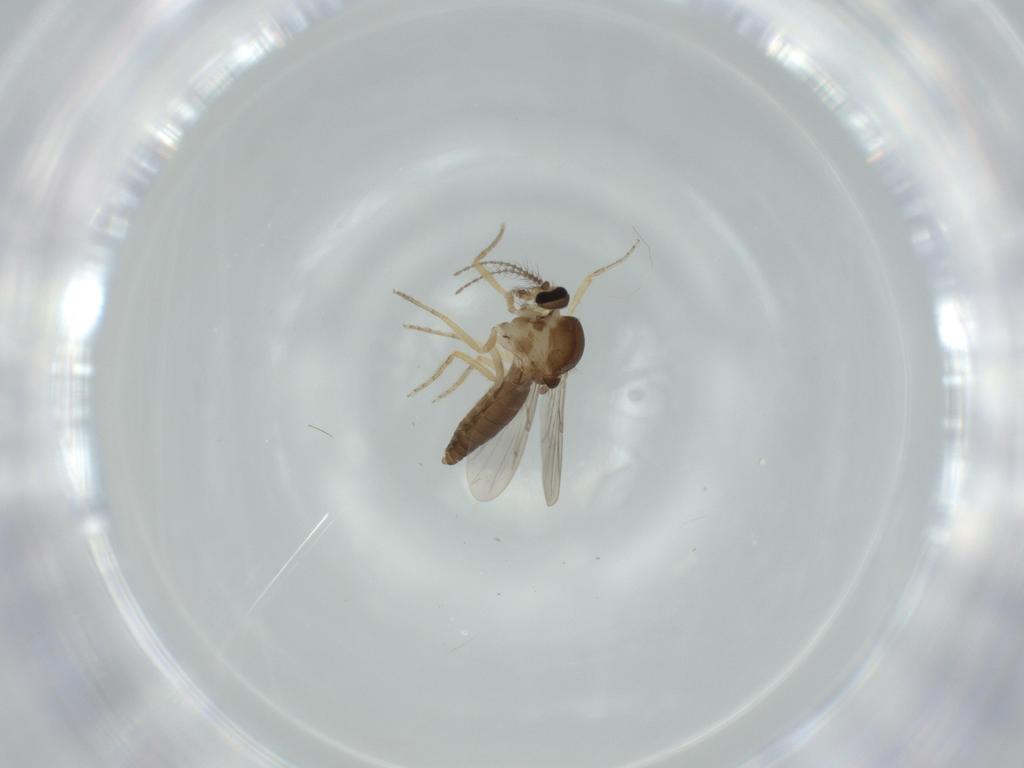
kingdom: Animalia
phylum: Arthropoda
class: Insecta
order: Diptera
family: Ceratopogonidae
